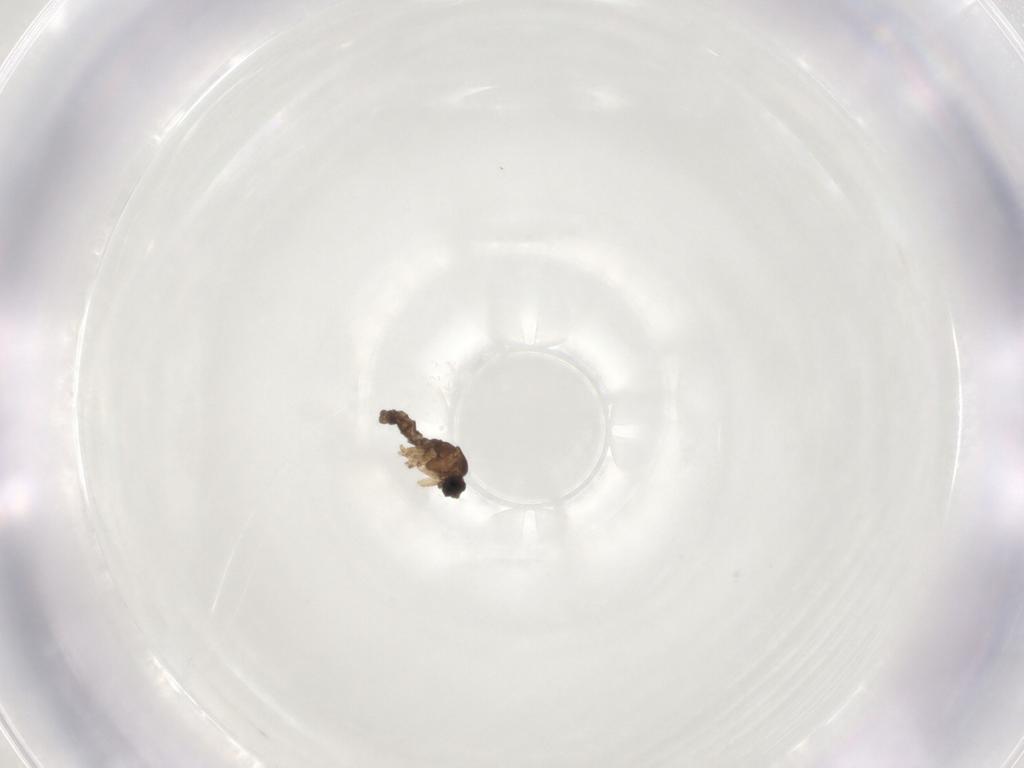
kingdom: Animalia
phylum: Arthropoda
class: Insecta
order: Diptera
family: Sciaridae
